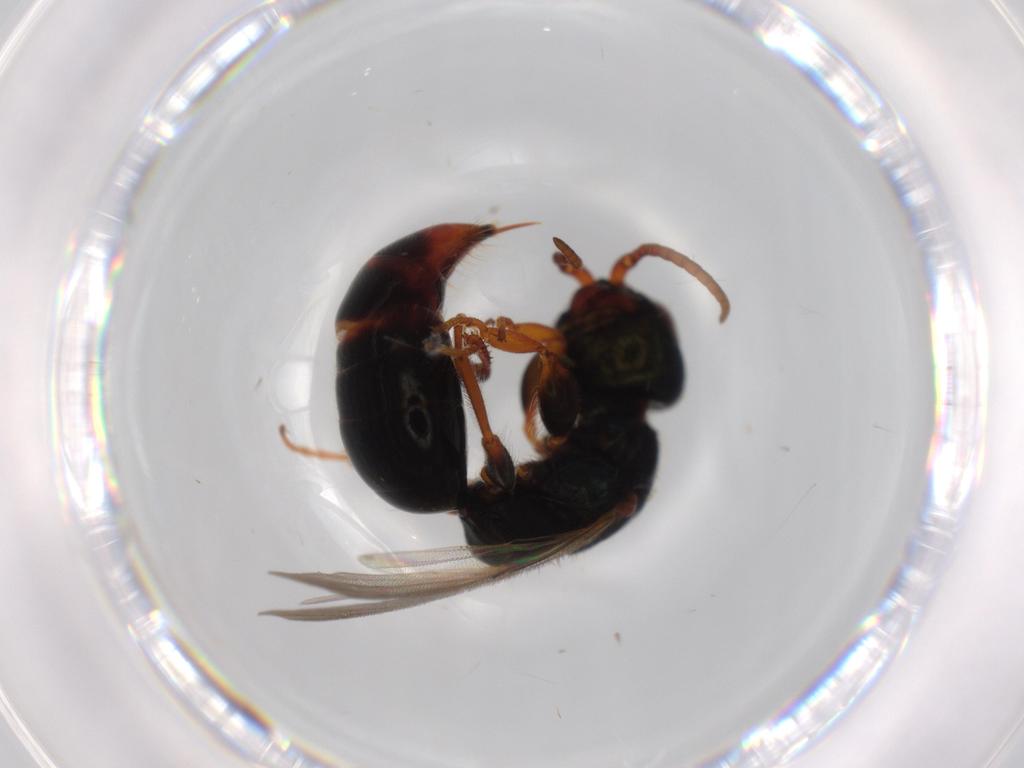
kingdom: Animalia
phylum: Arthropoda
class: Insecta
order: Hymenoptera
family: Bethylidae
